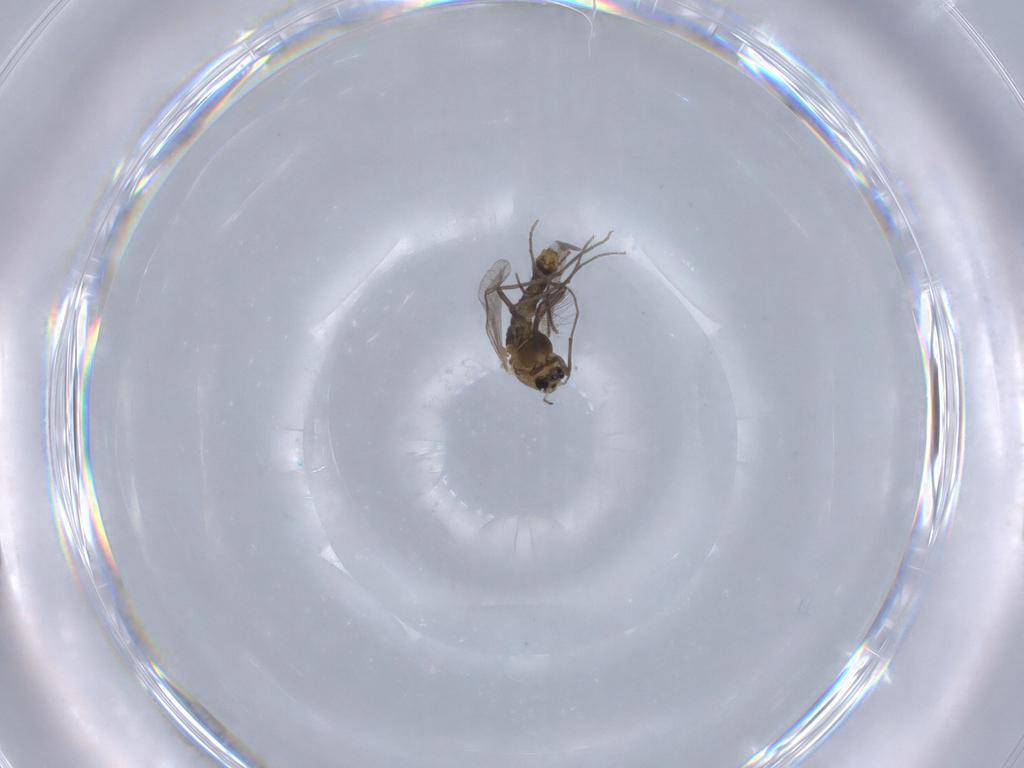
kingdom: Animalia
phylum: Arthropoda
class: Insecta
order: Diptera
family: Chironomidae
